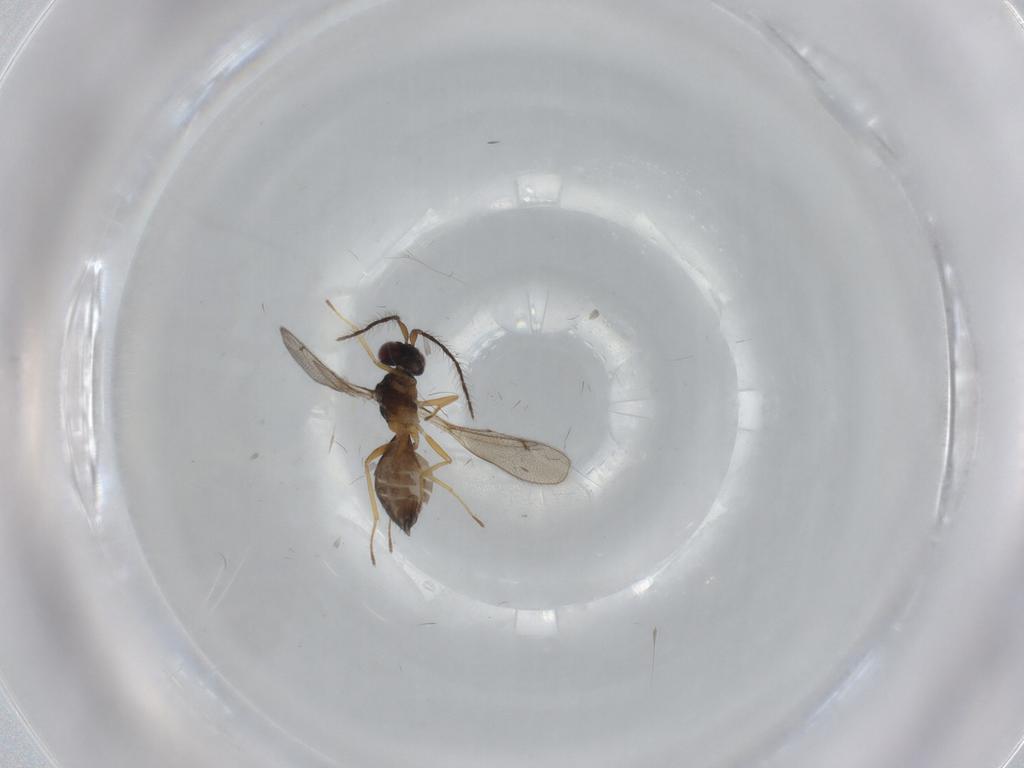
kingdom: Animalia
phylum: Arthropoda
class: Insecta
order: Hymenoptera
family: Eulophidae
